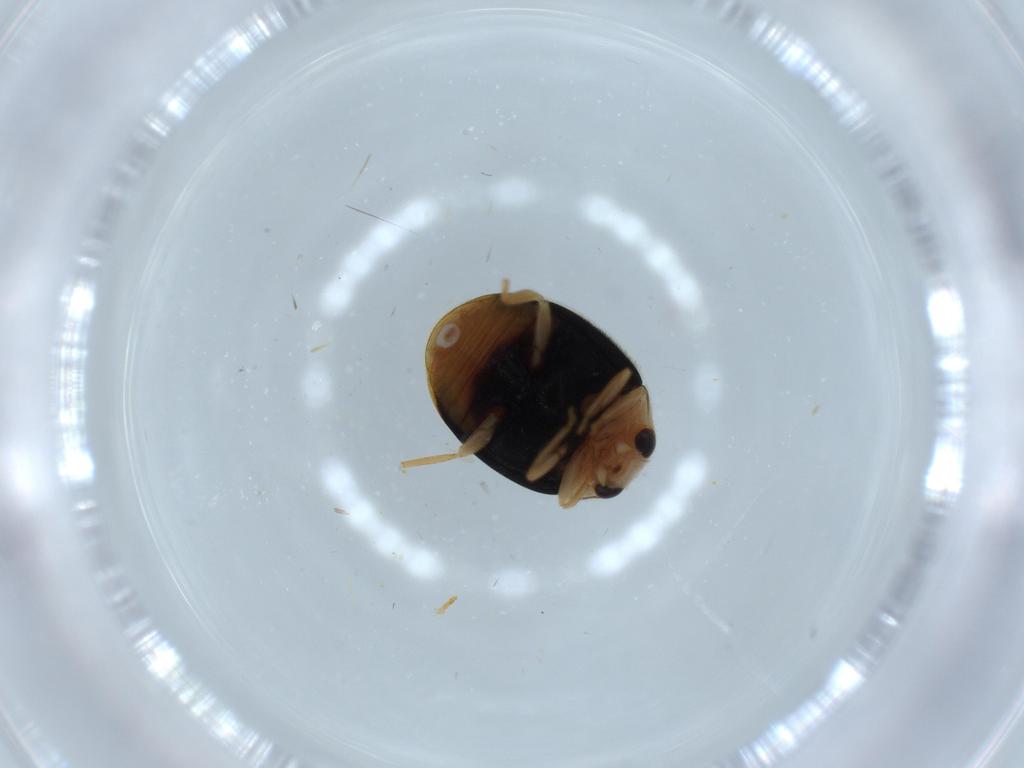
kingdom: Animalia
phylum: Arthropoda
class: Insecta
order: Coleoptera
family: Coccinellidae
